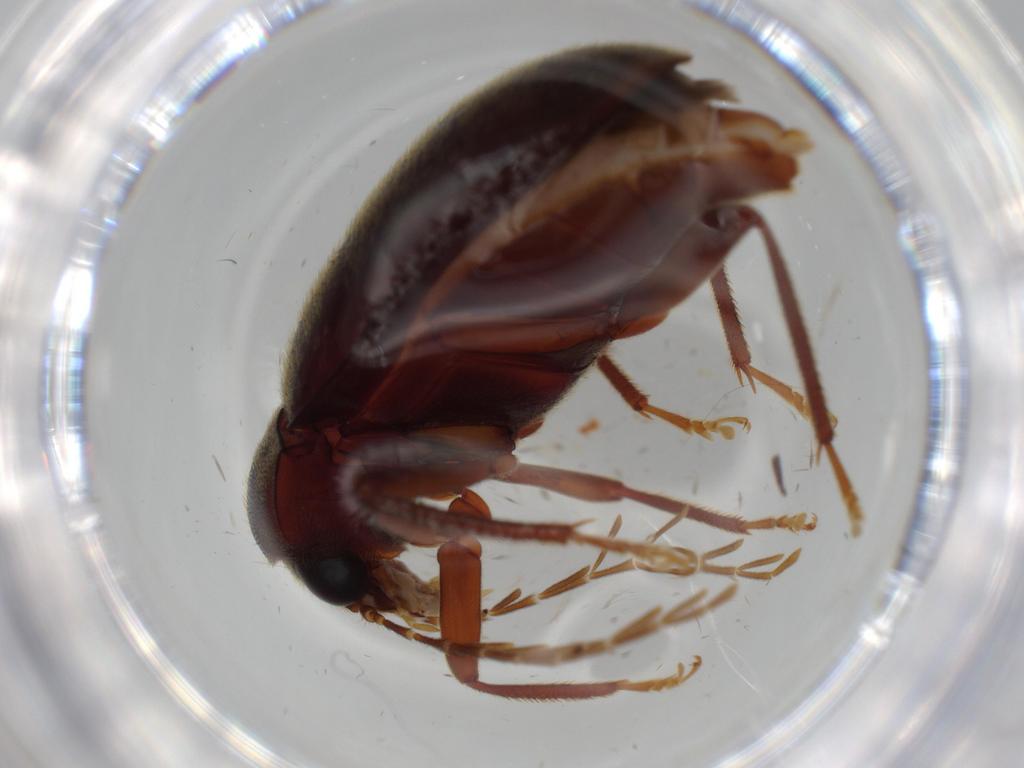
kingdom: Animalia
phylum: Arthropoda
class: Insecta
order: Coleoptera
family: Ptilodactylidae
